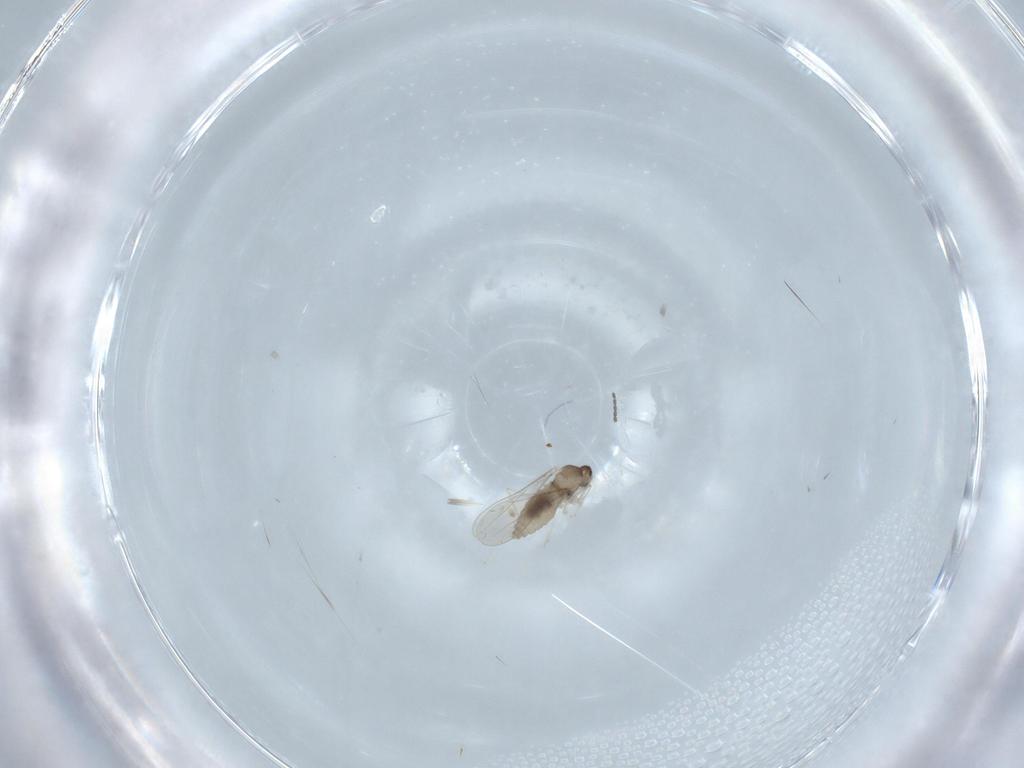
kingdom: Animalia
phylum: Arthropoda
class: Insecta
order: Diptera
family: Cecidomyiidae
